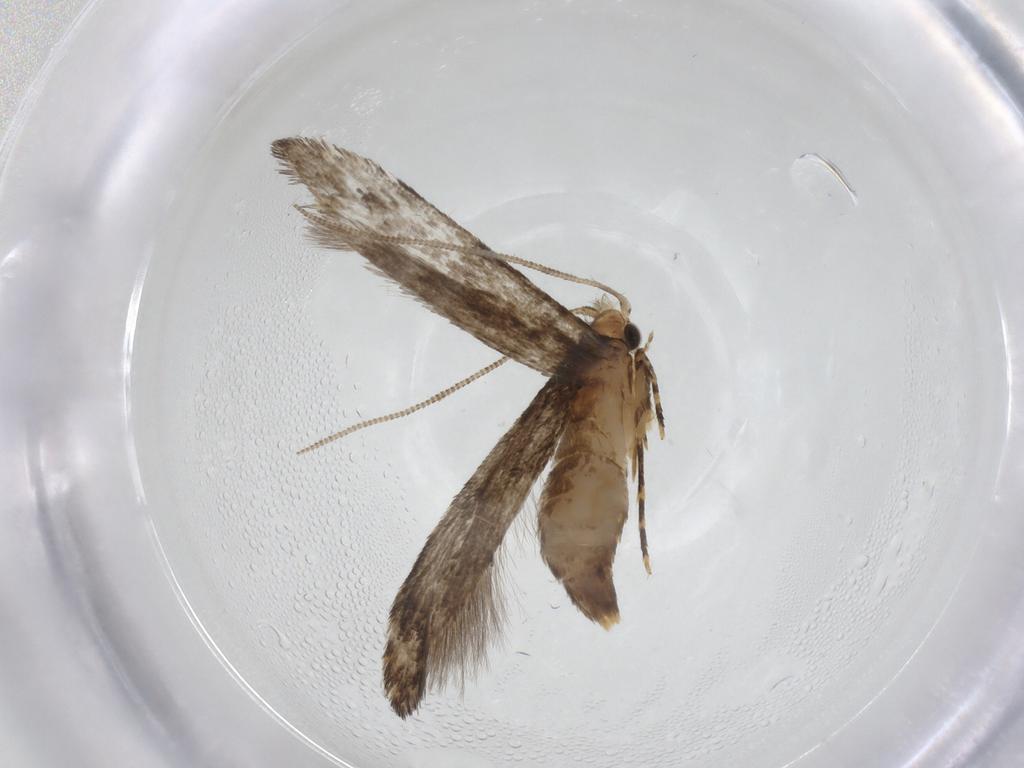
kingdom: Animalia
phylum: Arthropoda
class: Insecta
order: Lepidoptera
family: Meessiidae
